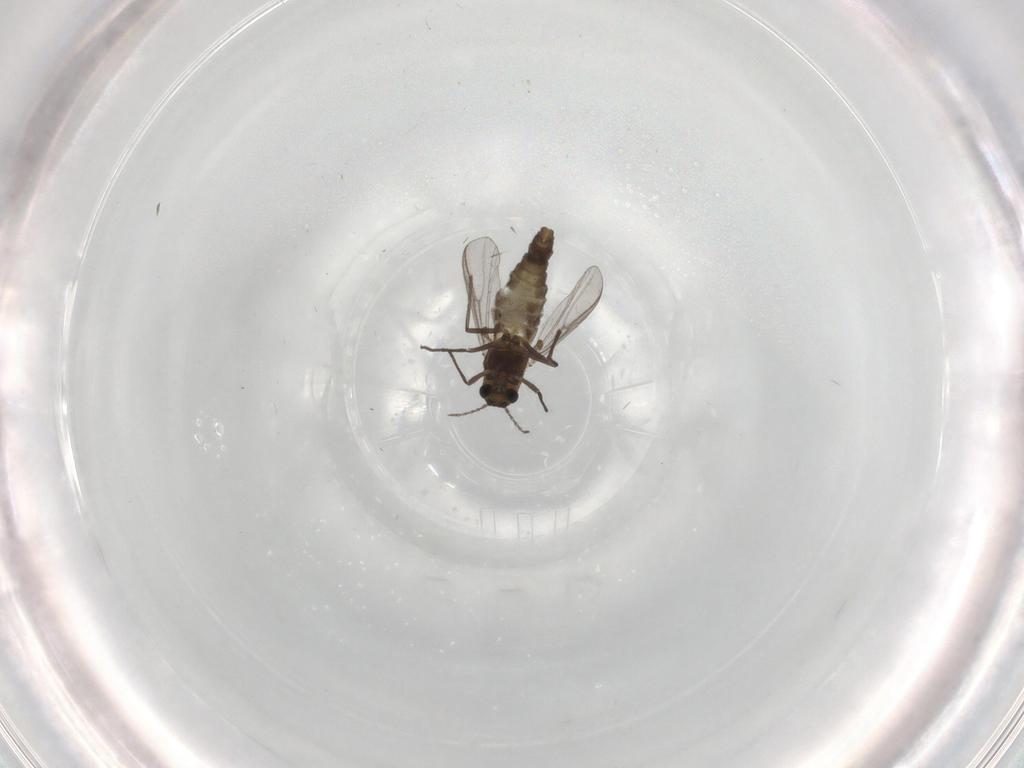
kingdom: Animalia
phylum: Arthropoda
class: Insecta
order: Diptera
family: Chironomidae
